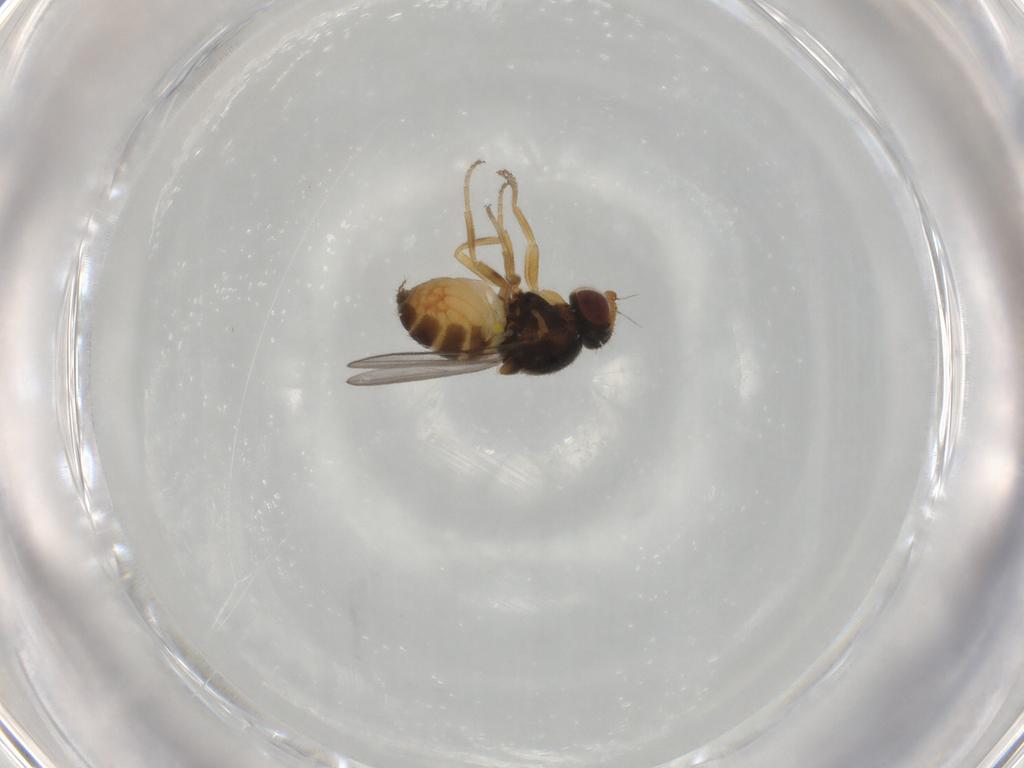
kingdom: Animalia
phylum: Arthropoda
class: Insecta
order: Diptera
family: Chloropidae
